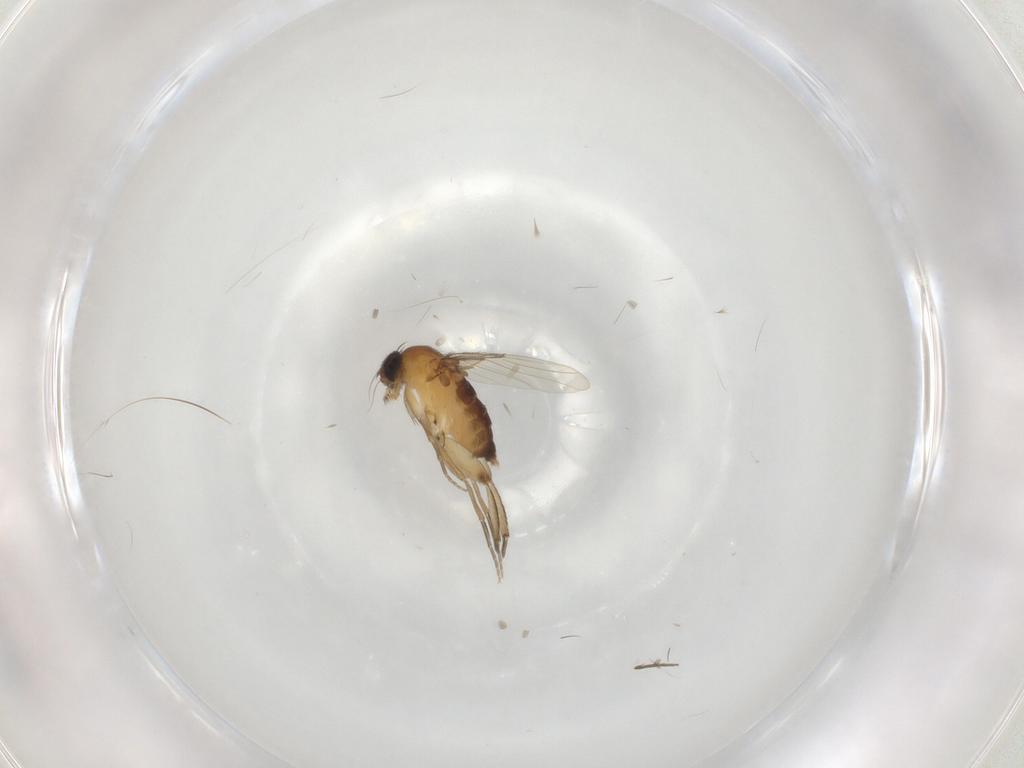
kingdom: Animalia
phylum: Arthropoda
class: Insecta
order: Diptera
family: Phoridae
